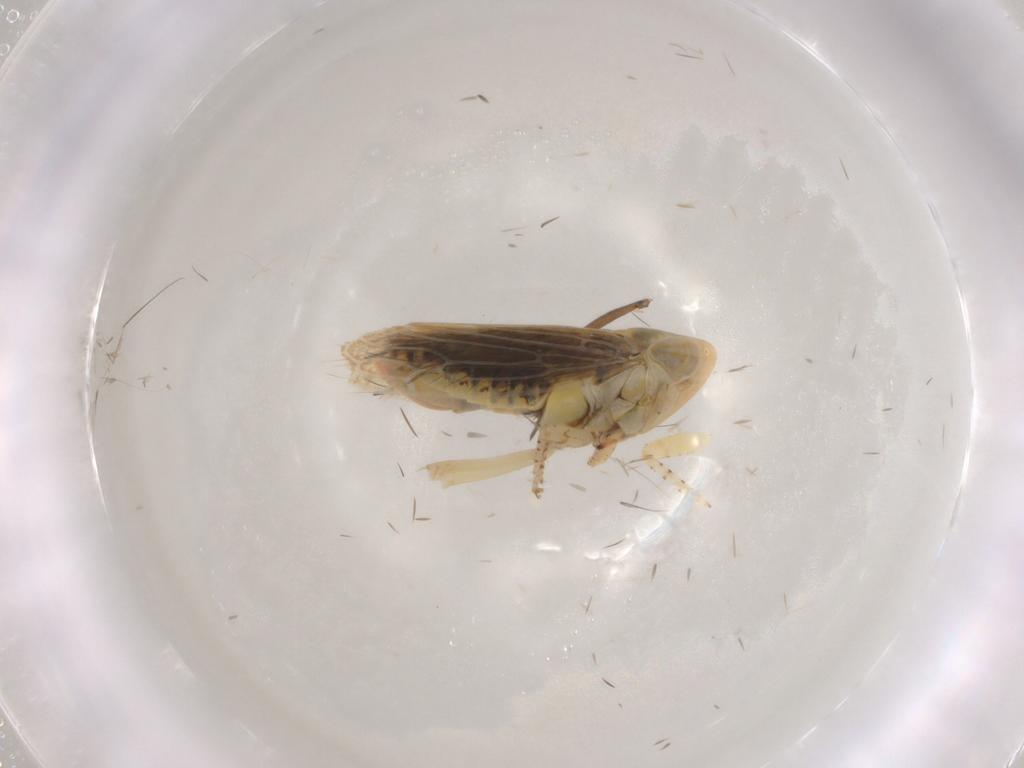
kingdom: Animalia
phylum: Arthropoda
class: Insecta
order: Hemiptera
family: Cicadellidae
